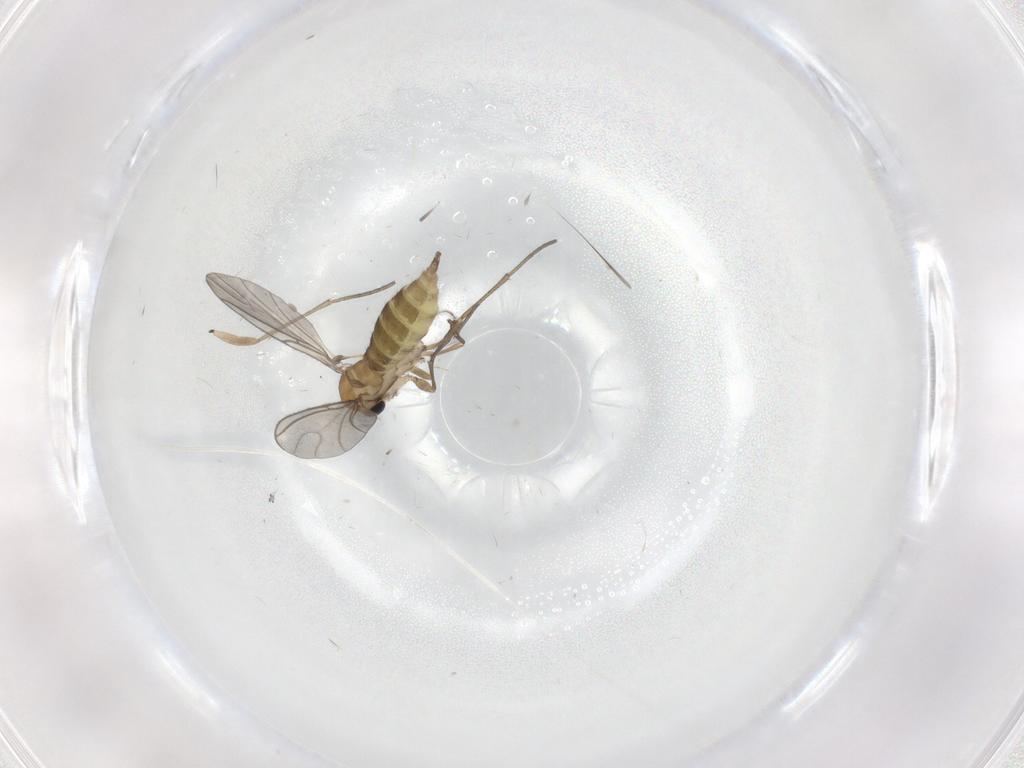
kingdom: Animalia
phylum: Arthropoda
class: Insecta
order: Diptera
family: Sciaridae
